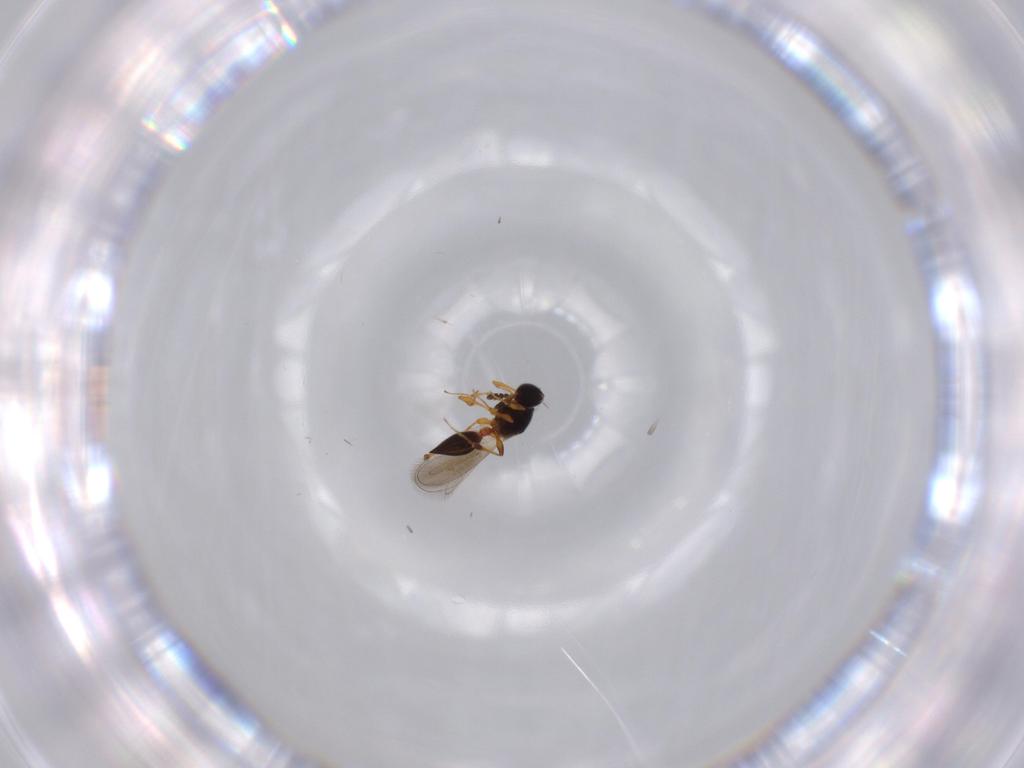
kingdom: Animalia
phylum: Arthropoda
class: Insecta
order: Hymenoptera
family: Platygastridae
